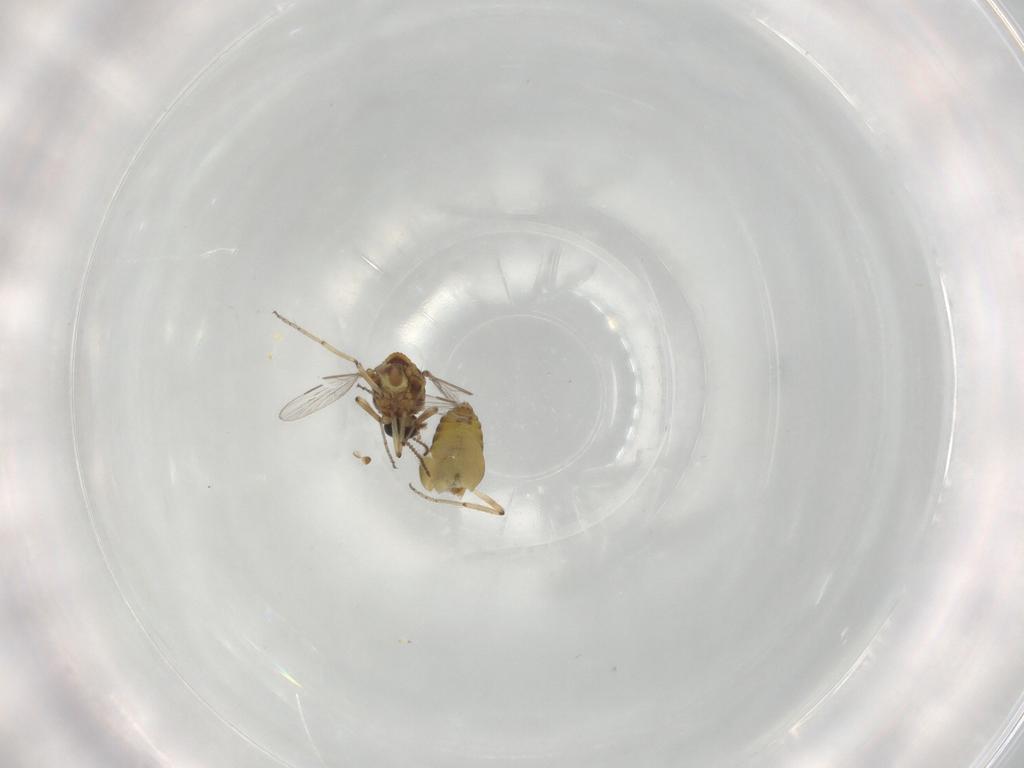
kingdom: Animalia
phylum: Arthropoda
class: Insecta
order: Diptera
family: Ceratopogonidae
